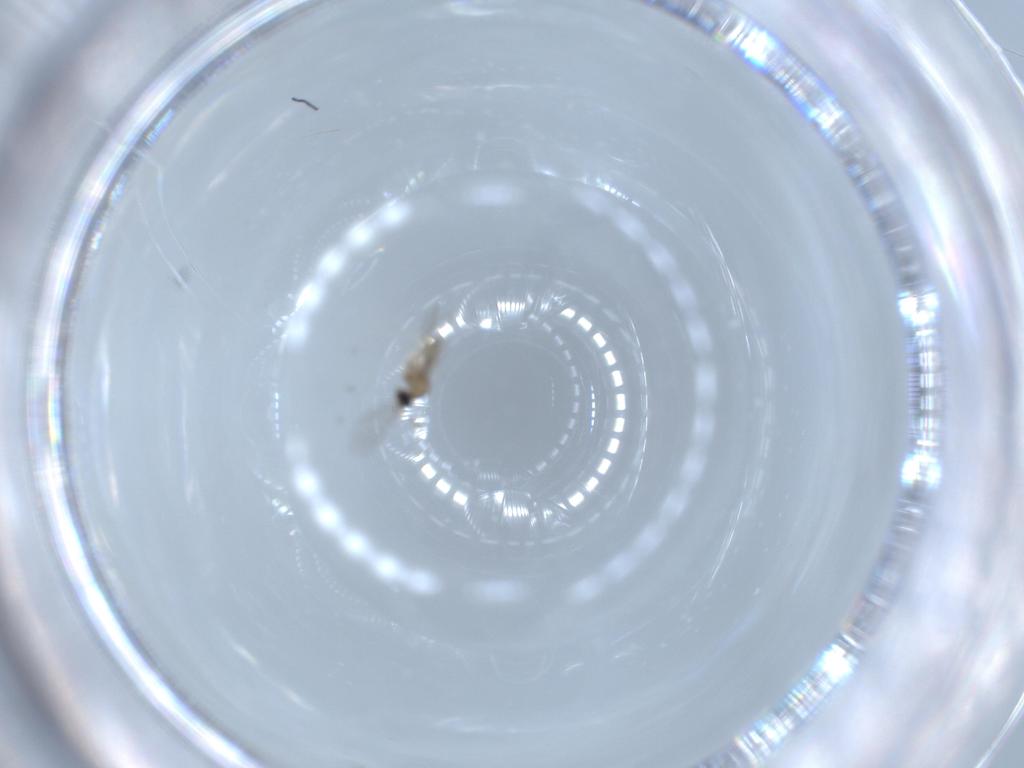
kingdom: Animalia
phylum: Arthropoda
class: Insecta
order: Diptera
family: Cecidomyiidae
